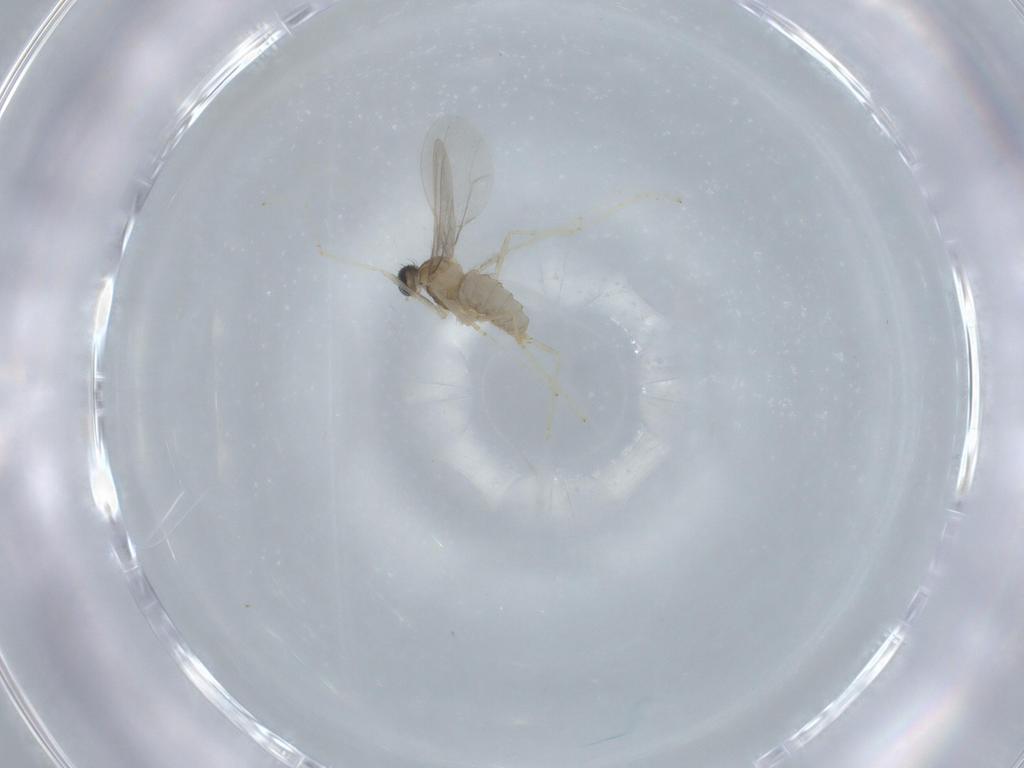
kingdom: Animalia
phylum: Arthropoda
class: Insecta
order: Diptera
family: Cecidomyiidae
